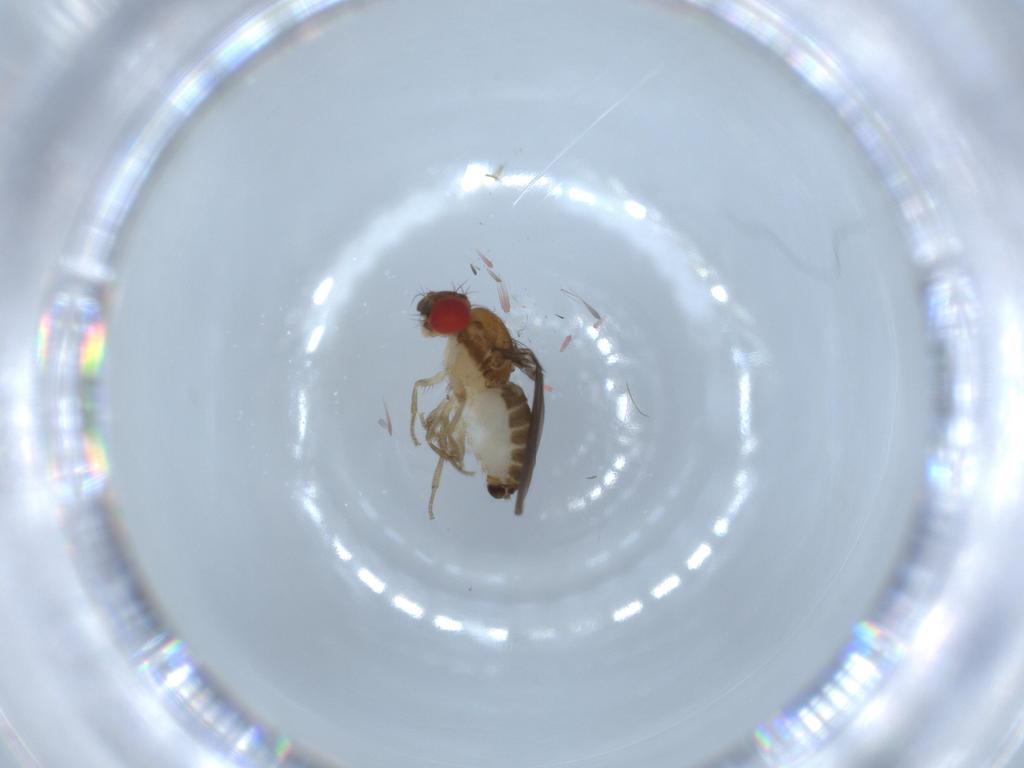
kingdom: Animalia
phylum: Arthropoda
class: Insecta
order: Diptera
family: Drosophilidae
